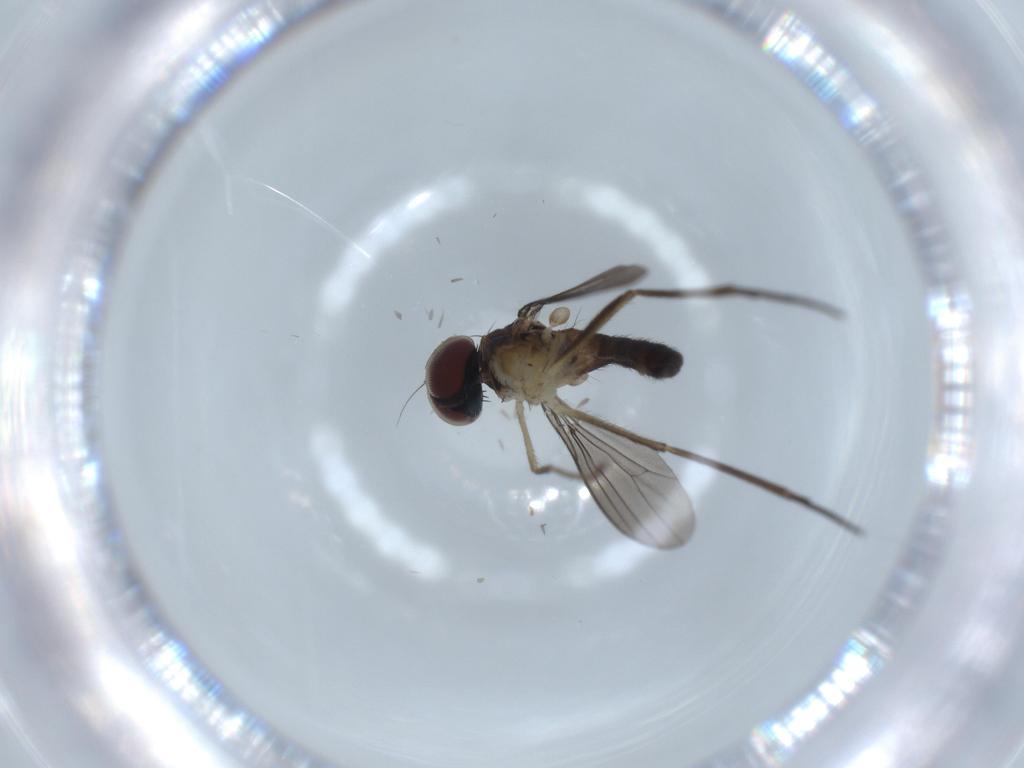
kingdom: Animalia
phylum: Arthropoda
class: Insecta
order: Diptera
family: Dolichopodidae
